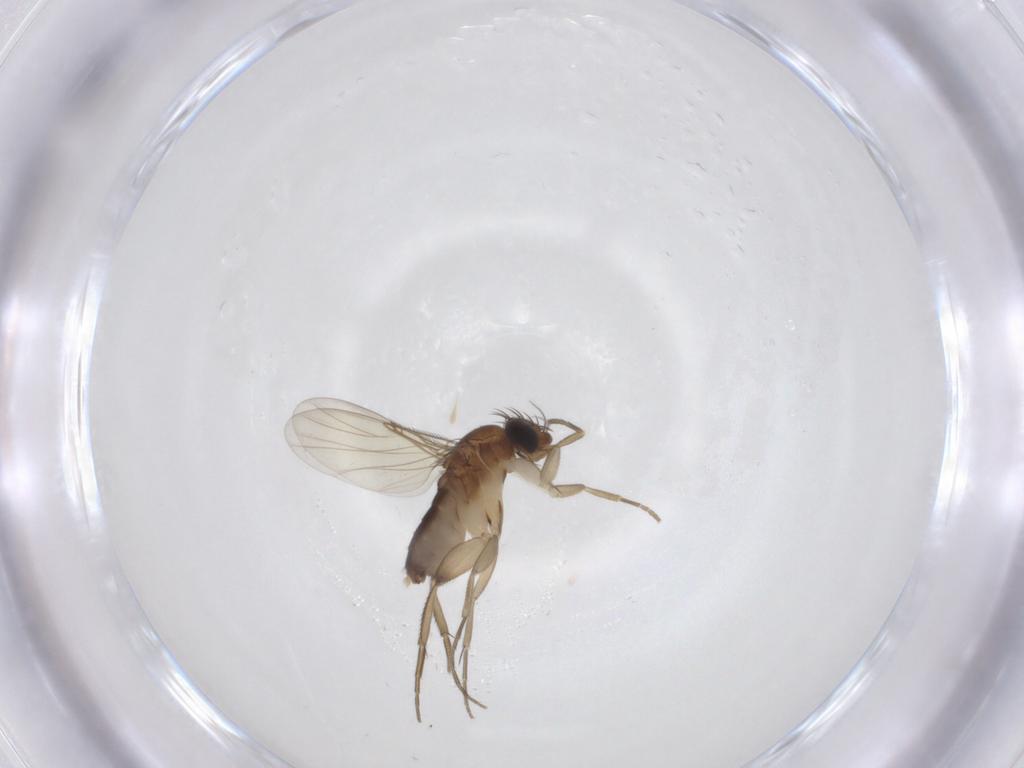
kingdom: Animalia
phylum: Arthropoda
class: Insecta
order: Diptera
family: Phoridae
